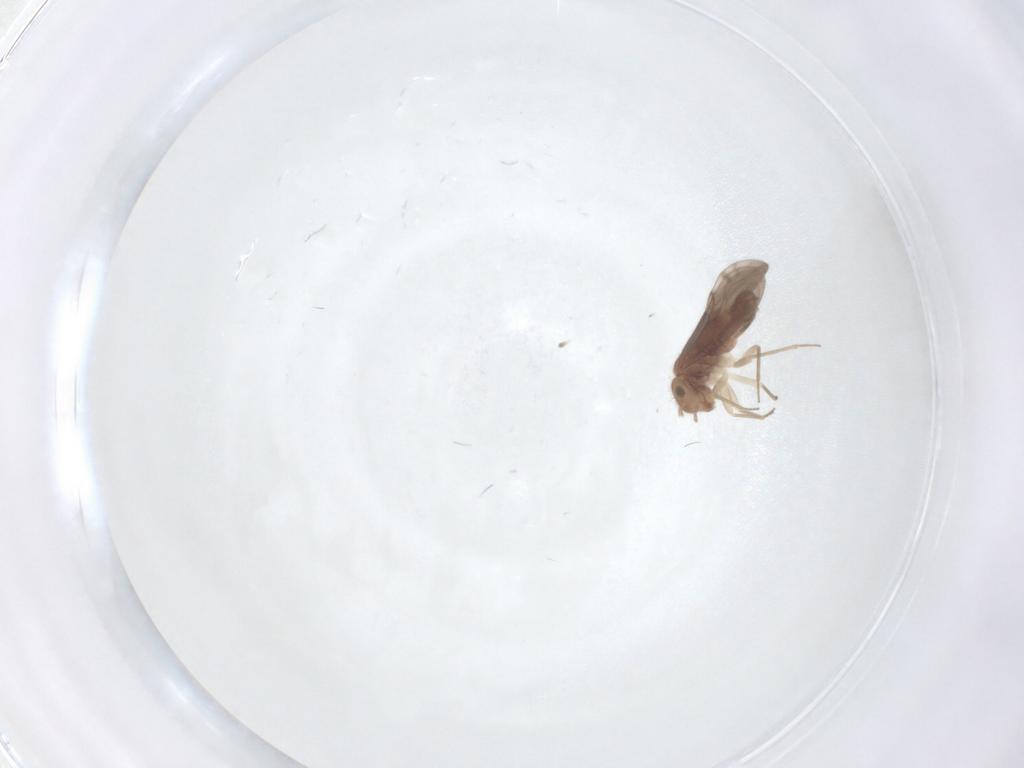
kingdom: Animalia
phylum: Arthropoda
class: Insecta
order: Psocodea
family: Ectopsocidae
